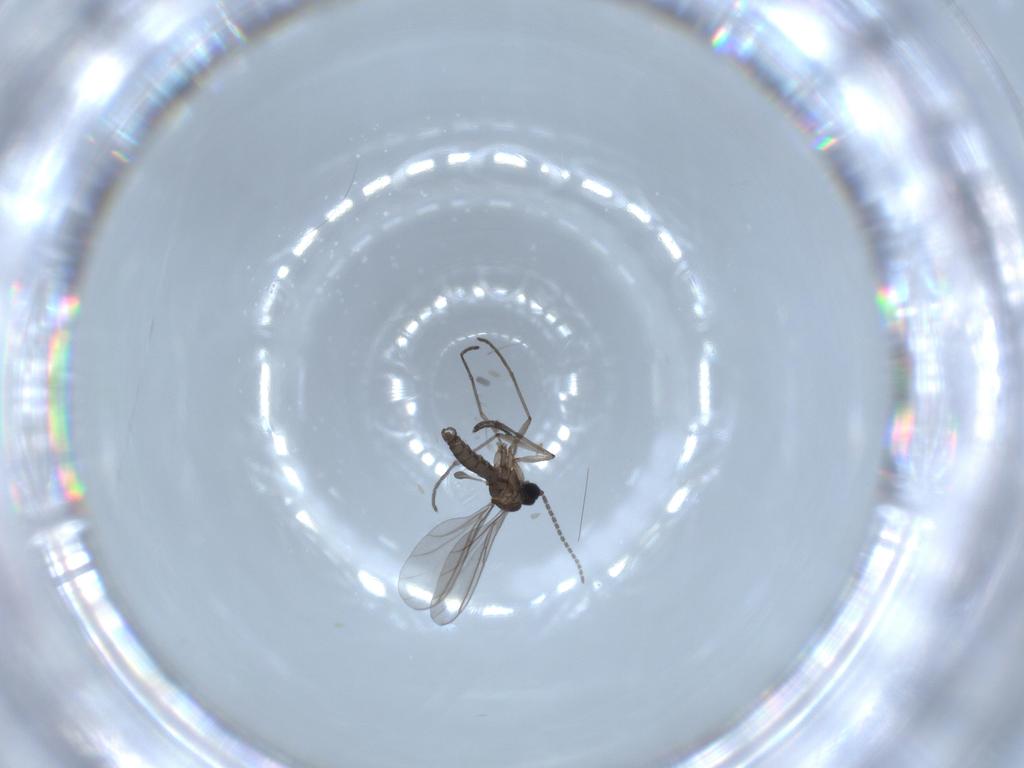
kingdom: Animalia
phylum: Arthropoda
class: Insecta
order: Diptera
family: Sciaridae
